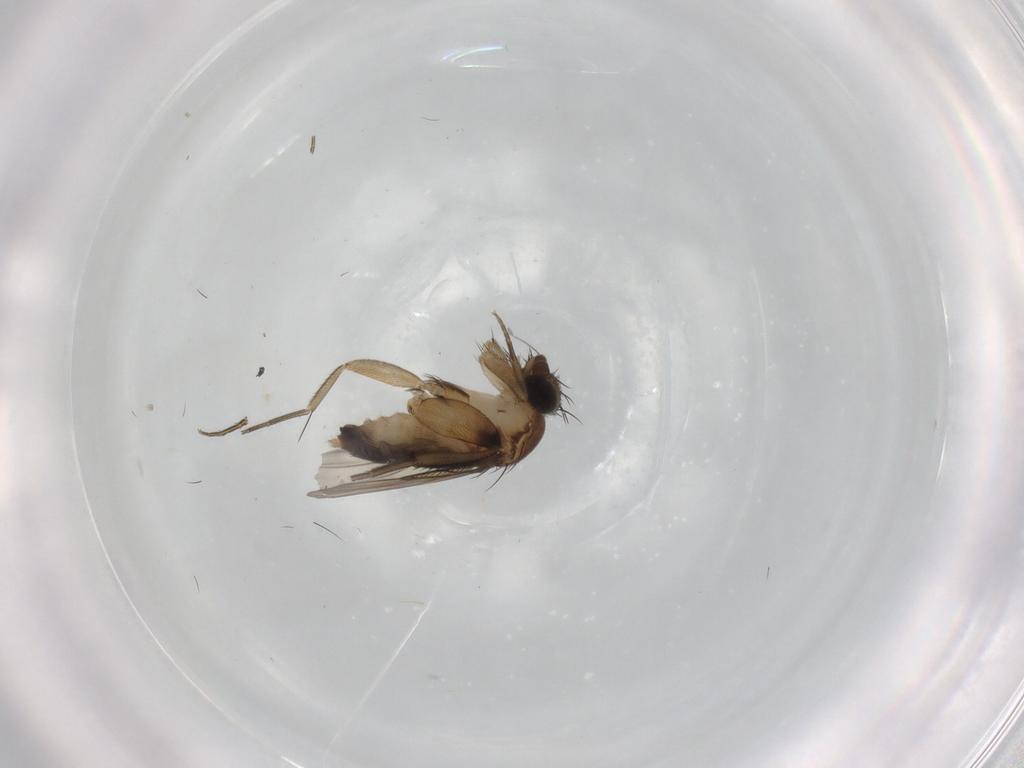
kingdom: Animalia
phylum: Arthropoda
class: Insecta
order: Diptera
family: Phoridae
